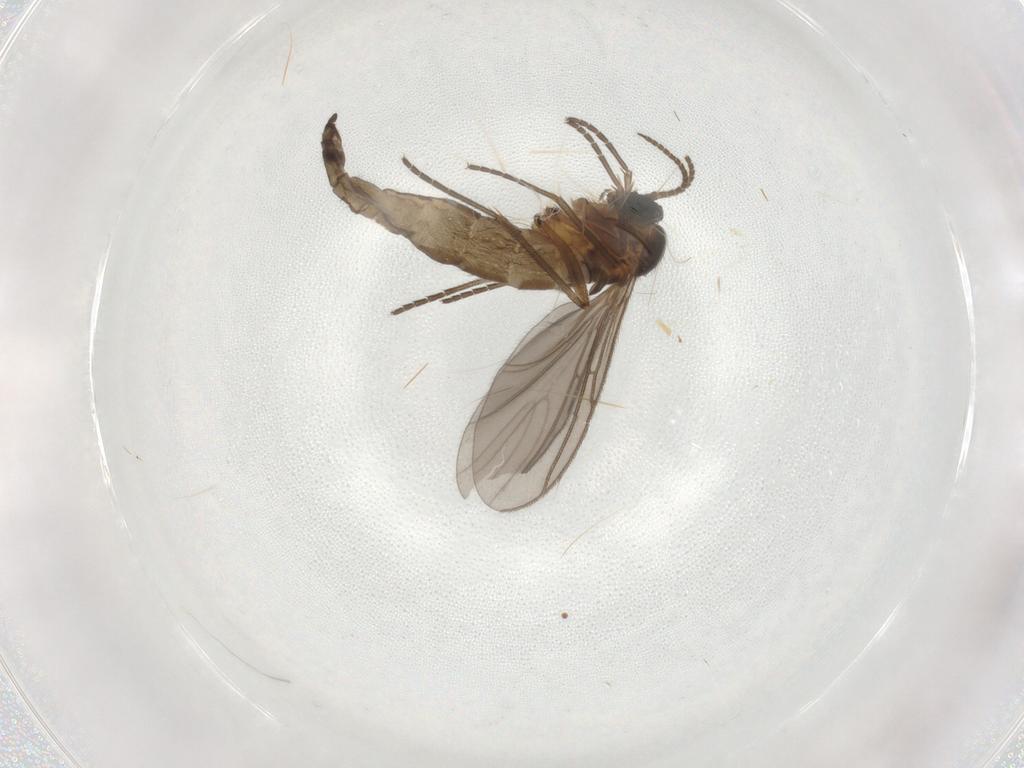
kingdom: Animalia
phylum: Arthropoda
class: Insecta
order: Diptera
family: Sciaridae
